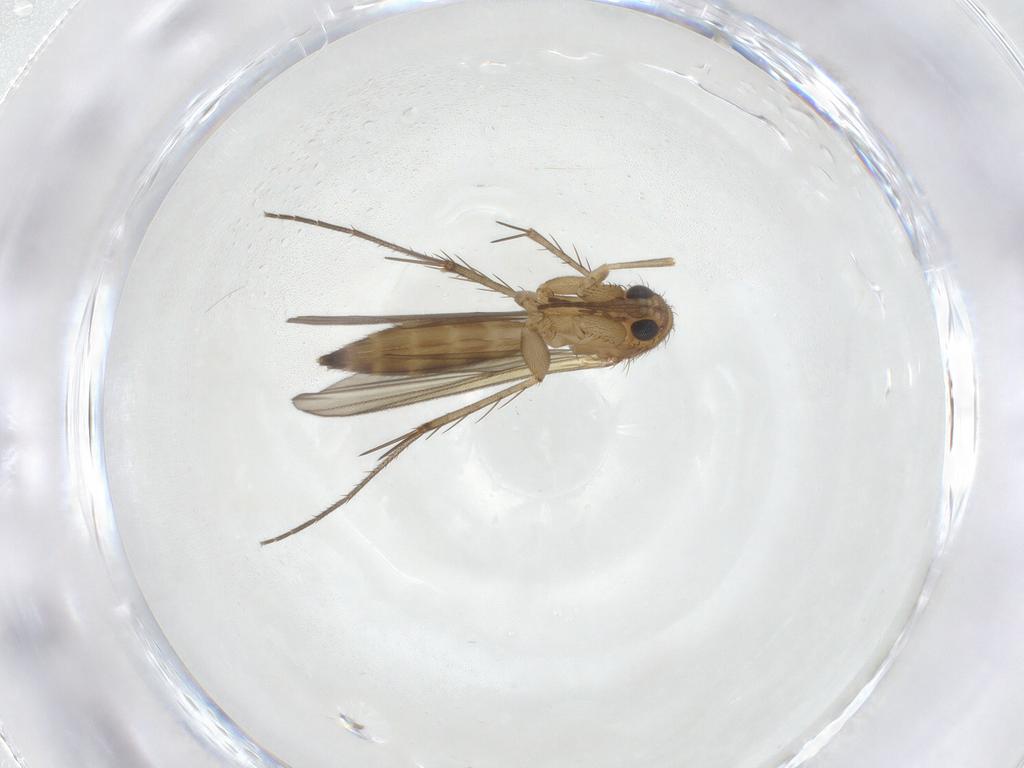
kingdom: Animalia
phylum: Arthropoda
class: Insecta
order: Diptera
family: Mycetophilidae
